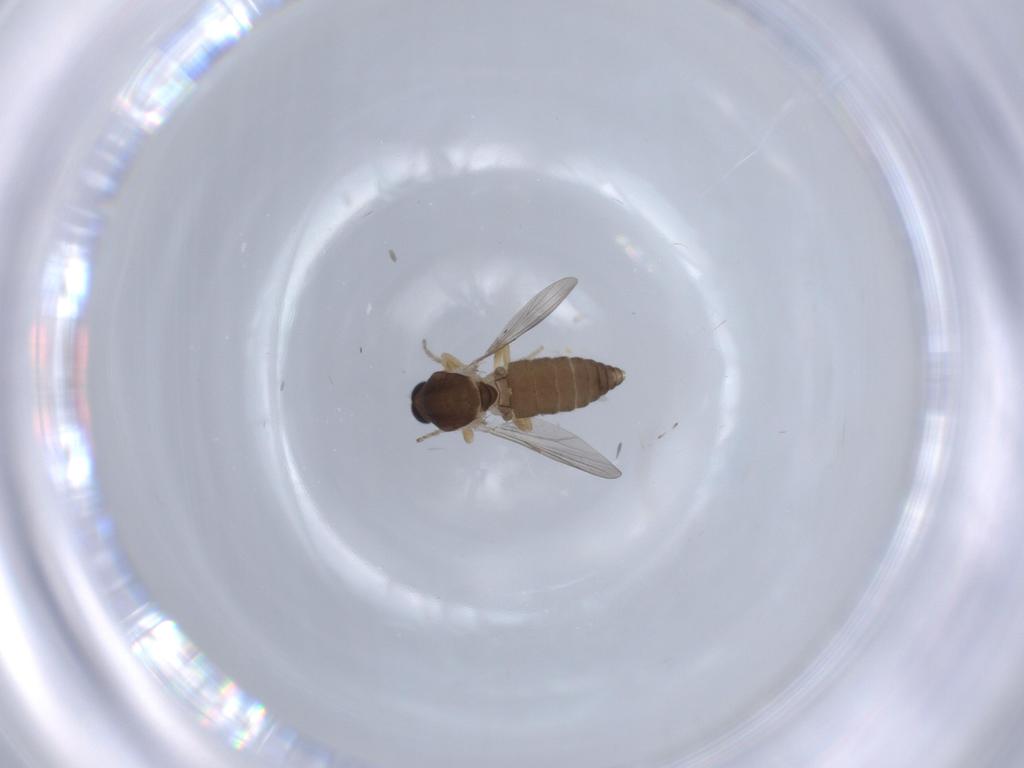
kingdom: Animalia
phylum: Arthropoda
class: Insecta
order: Diptera
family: Ceratopogonidae
